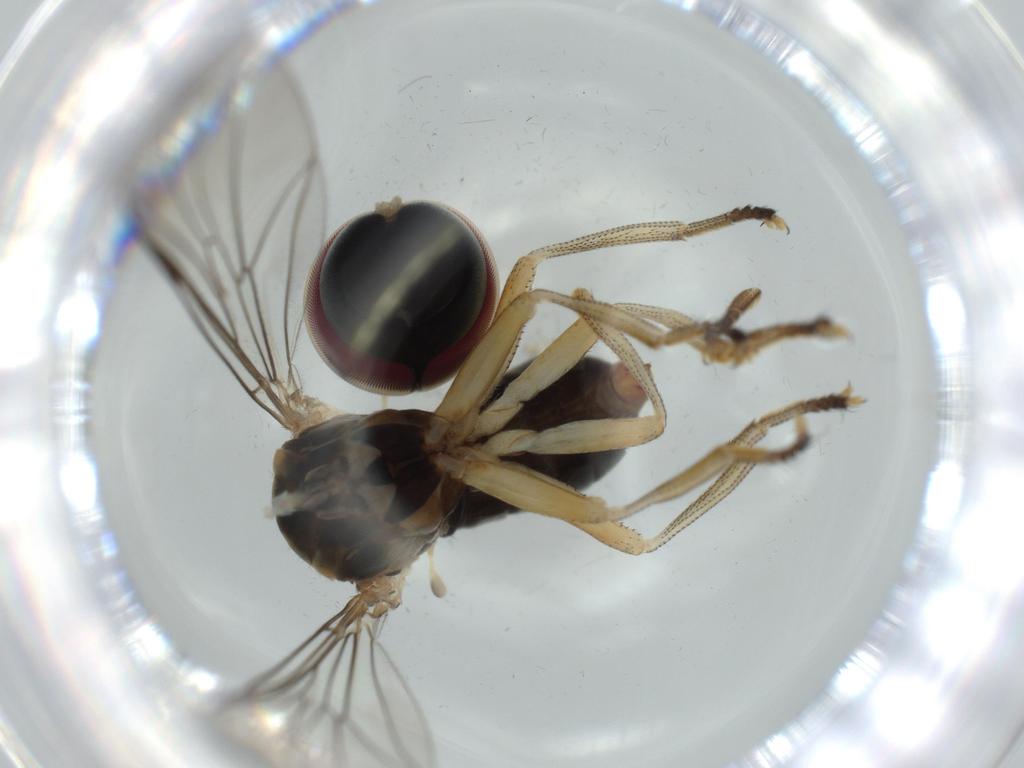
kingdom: Animalia
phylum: Arthropoda
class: Insecta
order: Diptera
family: Pipunculidae
